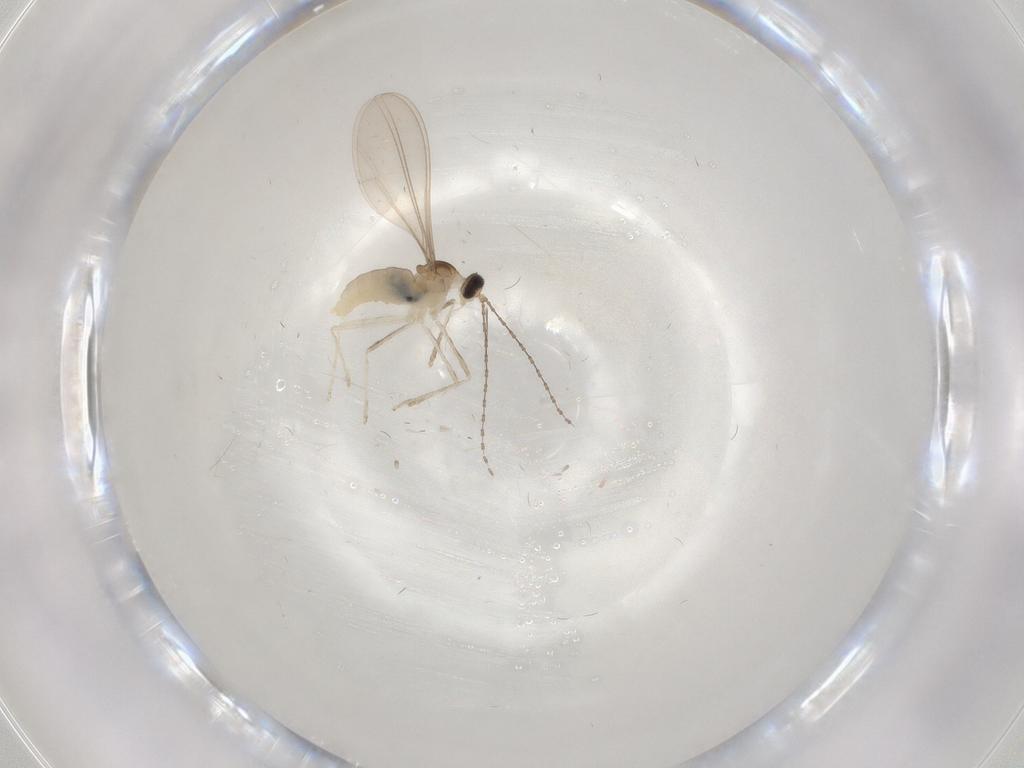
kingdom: Animalia
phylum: Arthropoda
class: Insecta
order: Diptera
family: Cecidomyiidae
